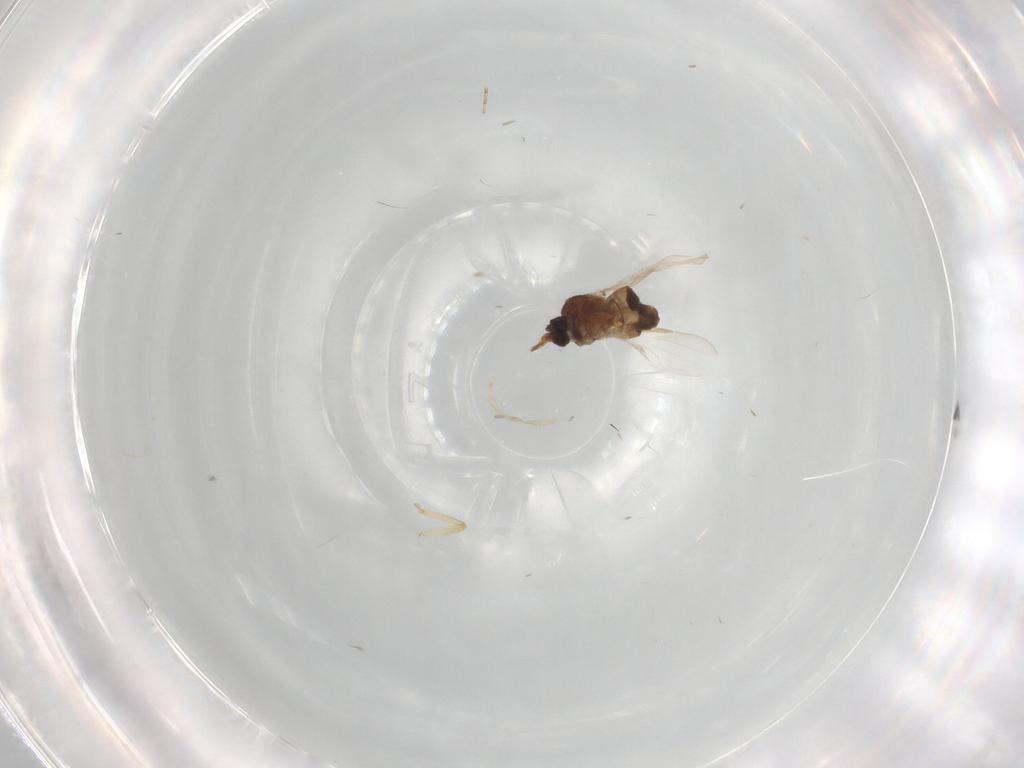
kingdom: Animalia
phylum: Arthropoda
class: Insecta
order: Diptera
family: Ceratopogonidae
